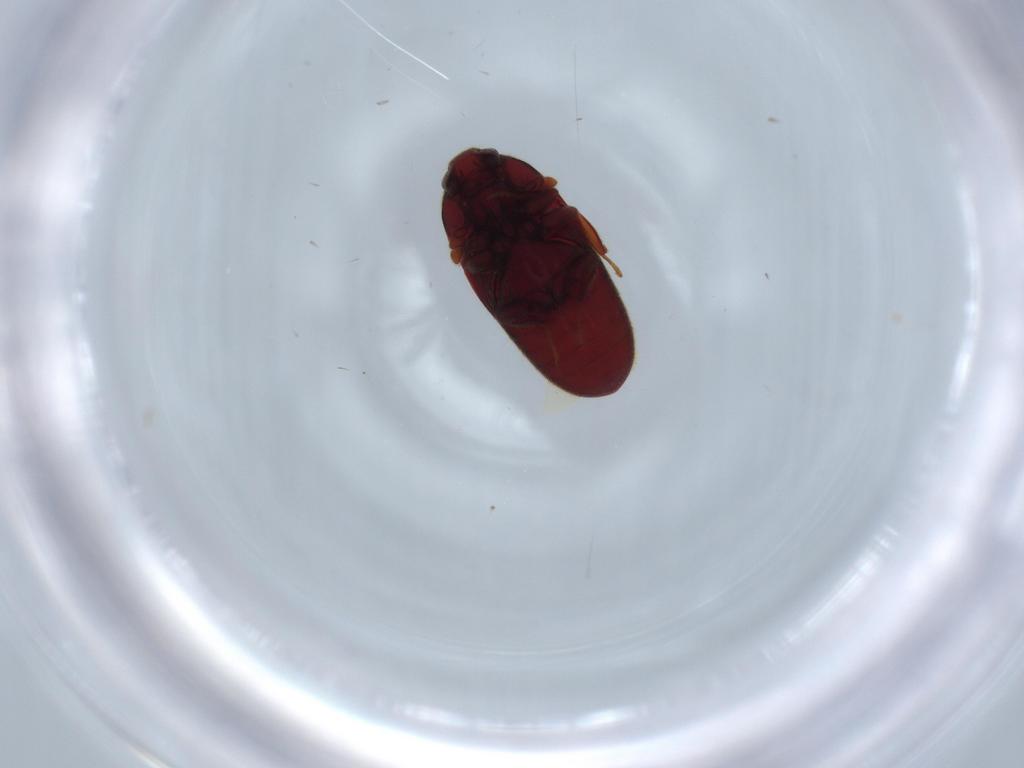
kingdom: Animalia
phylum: Arthropoda
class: Insecta
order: Coleoptera
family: Throscidae
